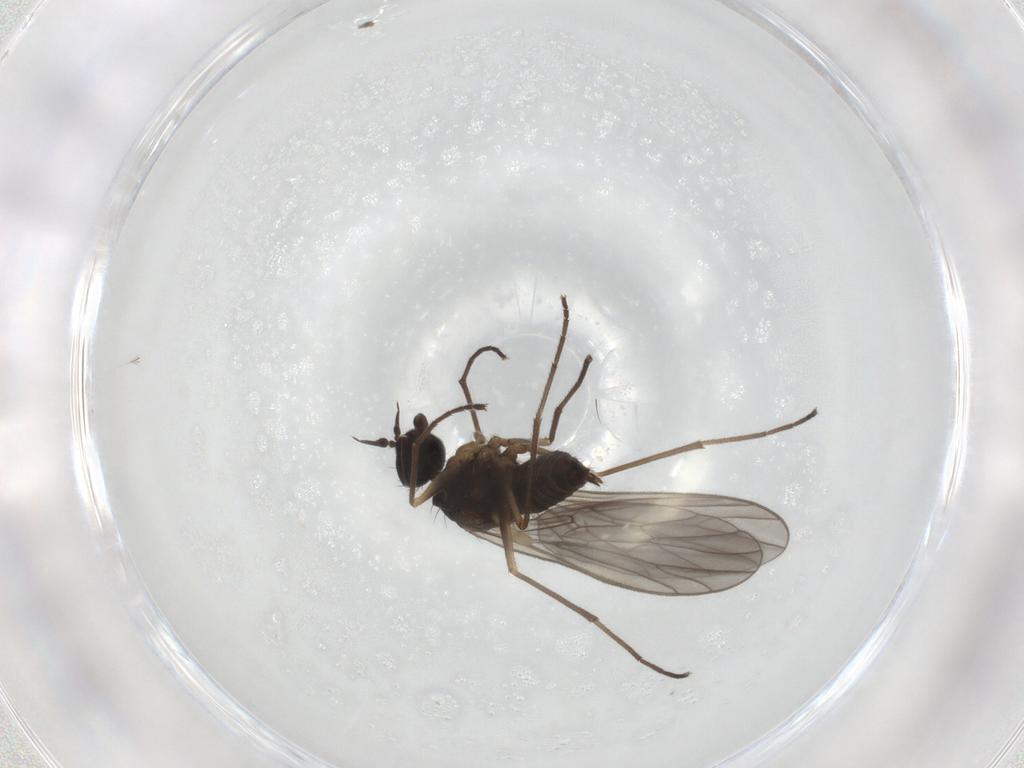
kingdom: Animalia
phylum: Arthropoda
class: Insecta
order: Diptera
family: Empididae
